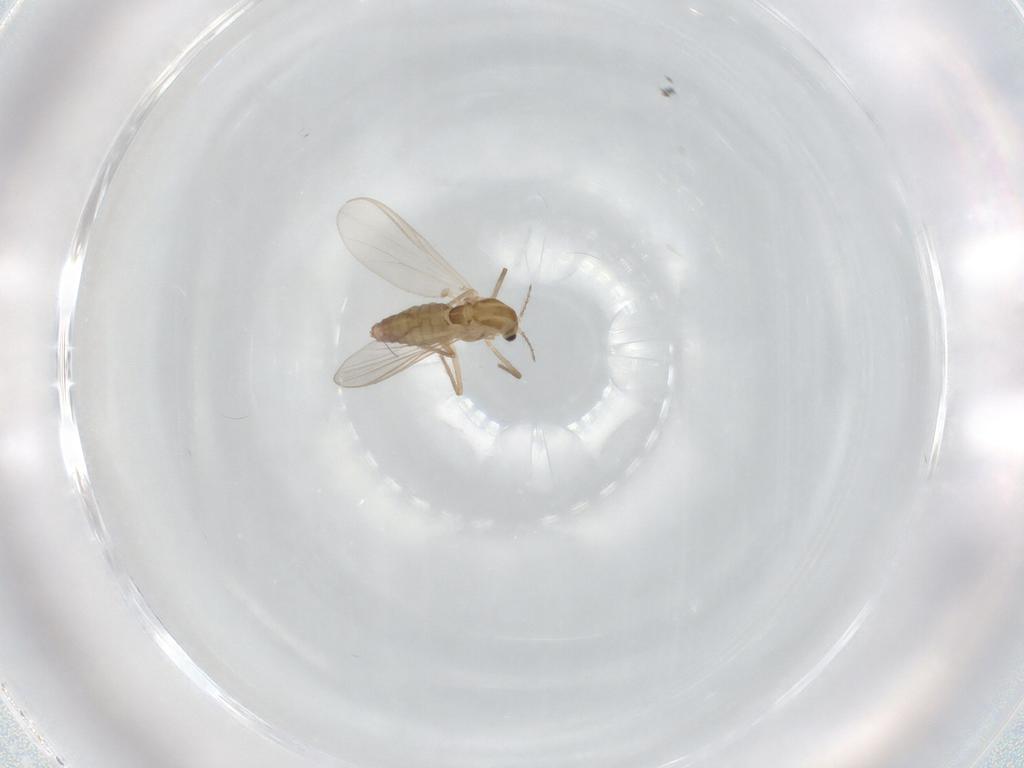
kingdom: Animalia
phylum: Arthropoda
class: Insecta
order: Diptera
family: Chironomidae
